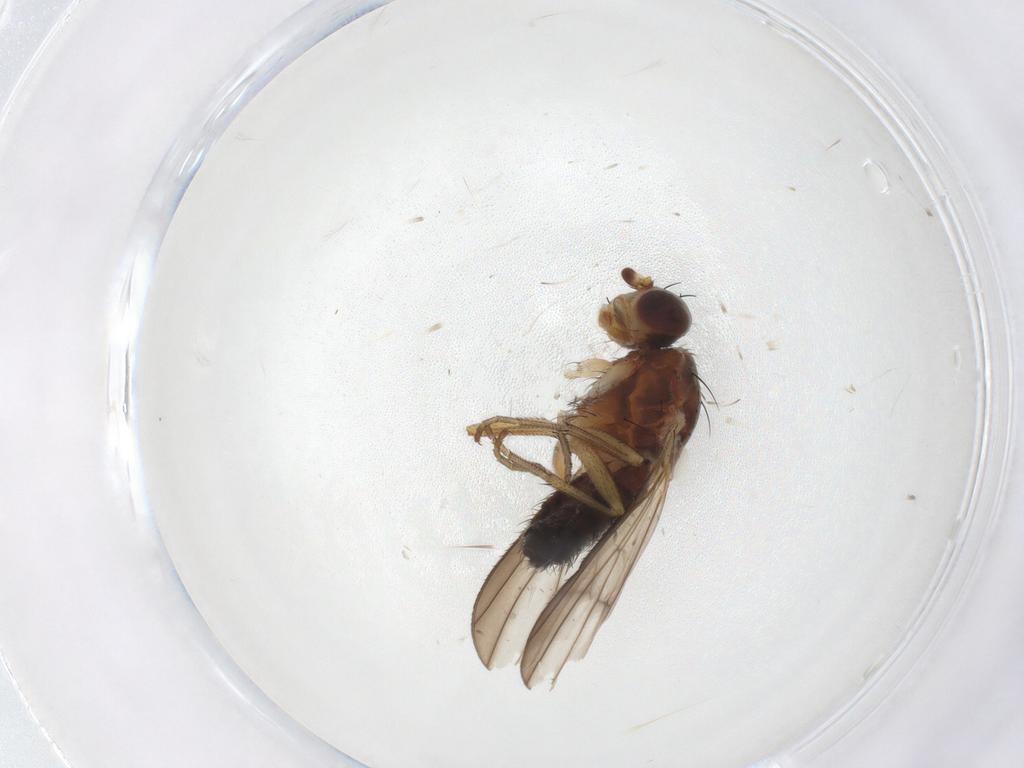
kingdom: Animalia
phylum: Arthropoda
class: Insecta
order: Diptera
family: Heleomyzidae
